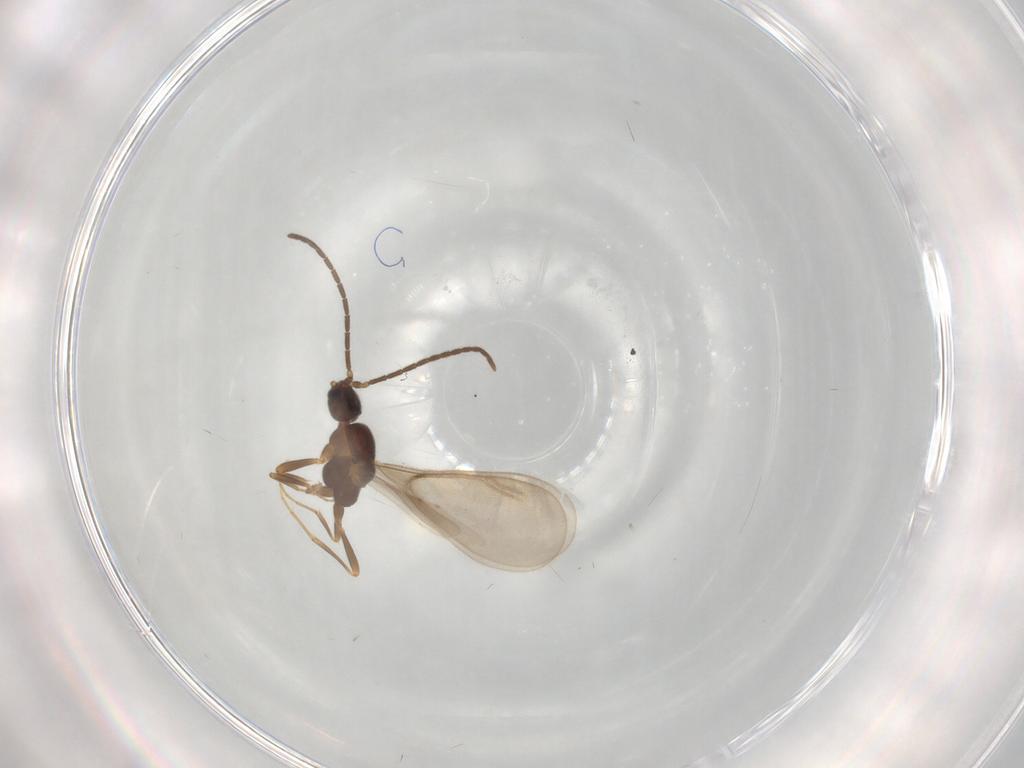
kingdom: Animalia
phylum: Arthropoda
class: Insecta
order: Hymenoptera
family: Formicidae
